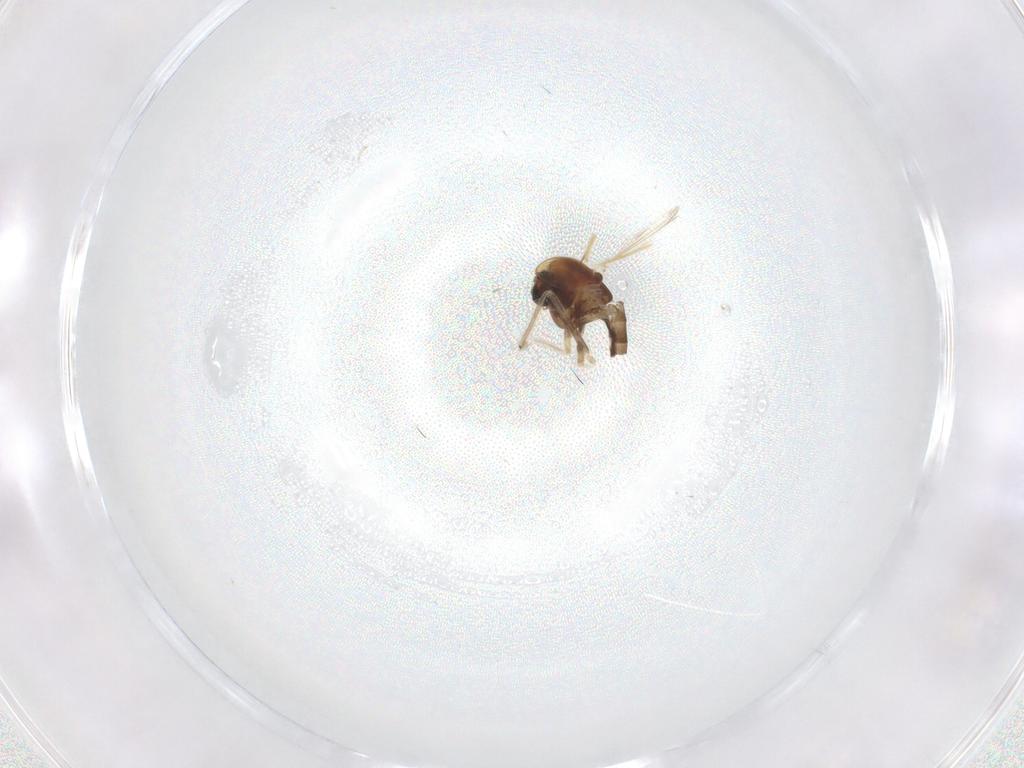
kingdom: Animalia
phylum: Arthropoda
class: Insecta
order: Diptera
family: Chironomidae
